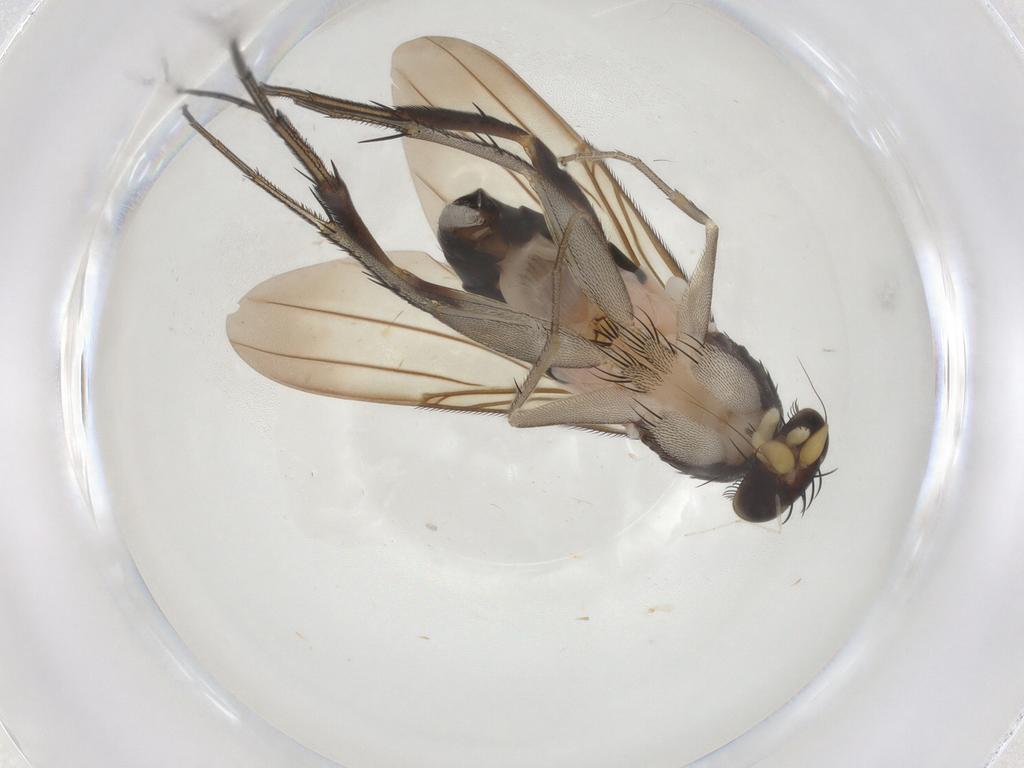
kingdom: Animalia
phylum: Arthropoda
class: Insecta
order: Diptera
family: Phoridae
